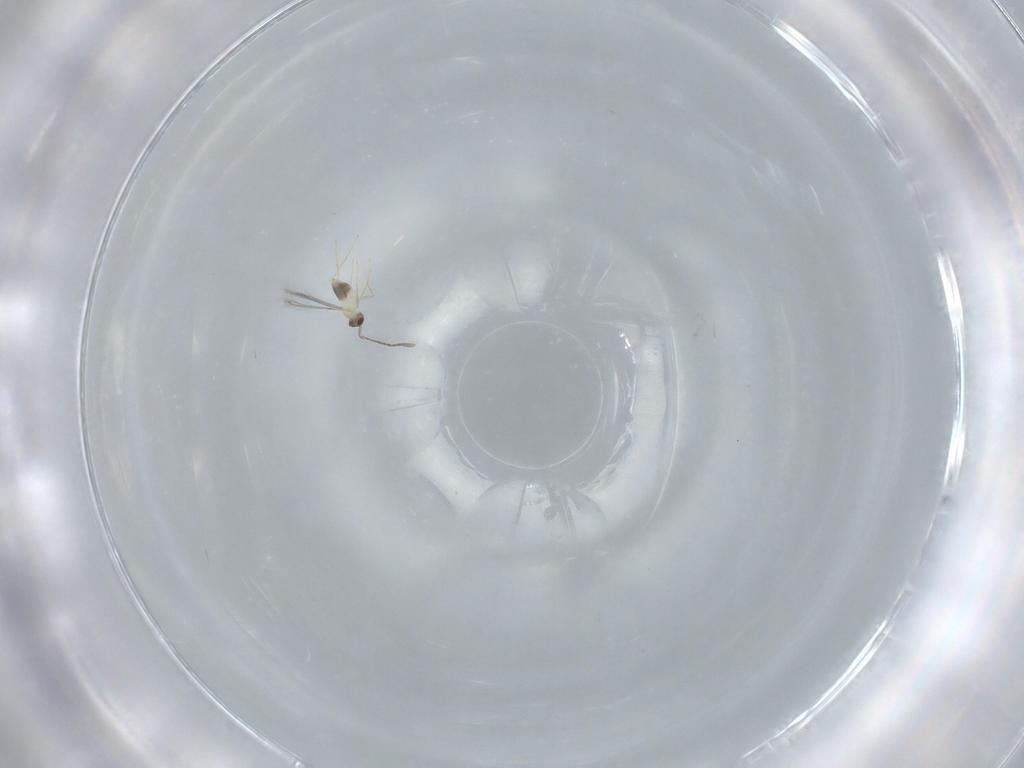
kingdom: Animalia
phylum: Arthropoda
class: Insecta
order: Hymenoptera
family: Mymaridae
